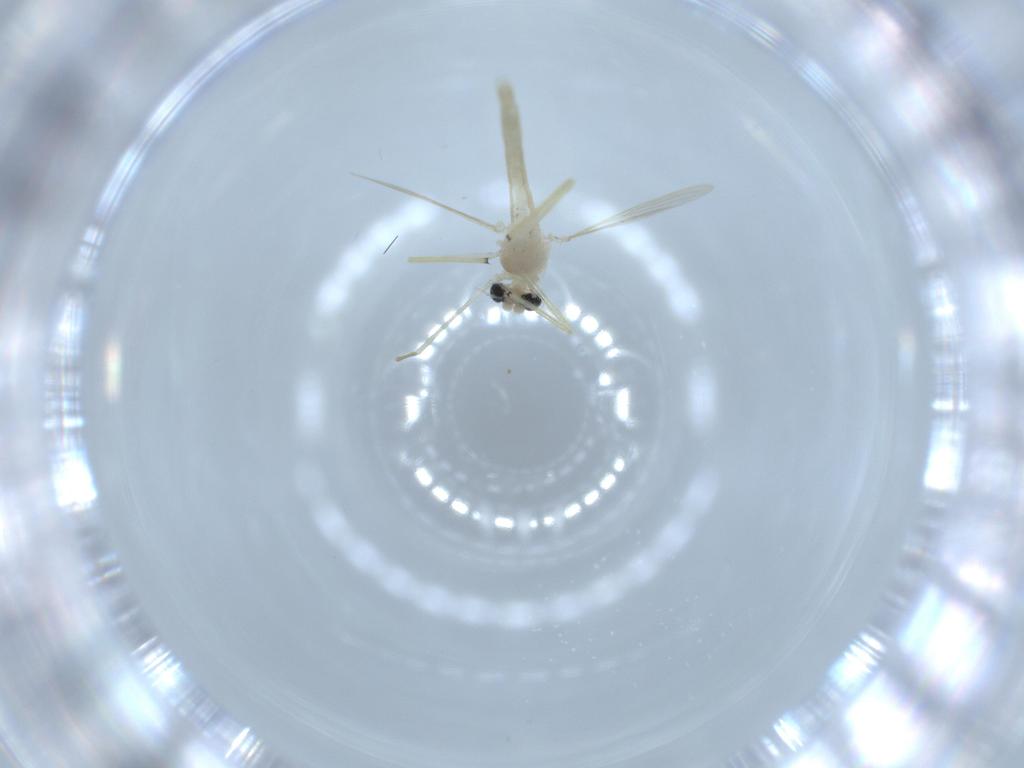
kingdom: Animalia
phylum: Arthropoda
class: Insecta
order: Diptera
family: Chironomidae
